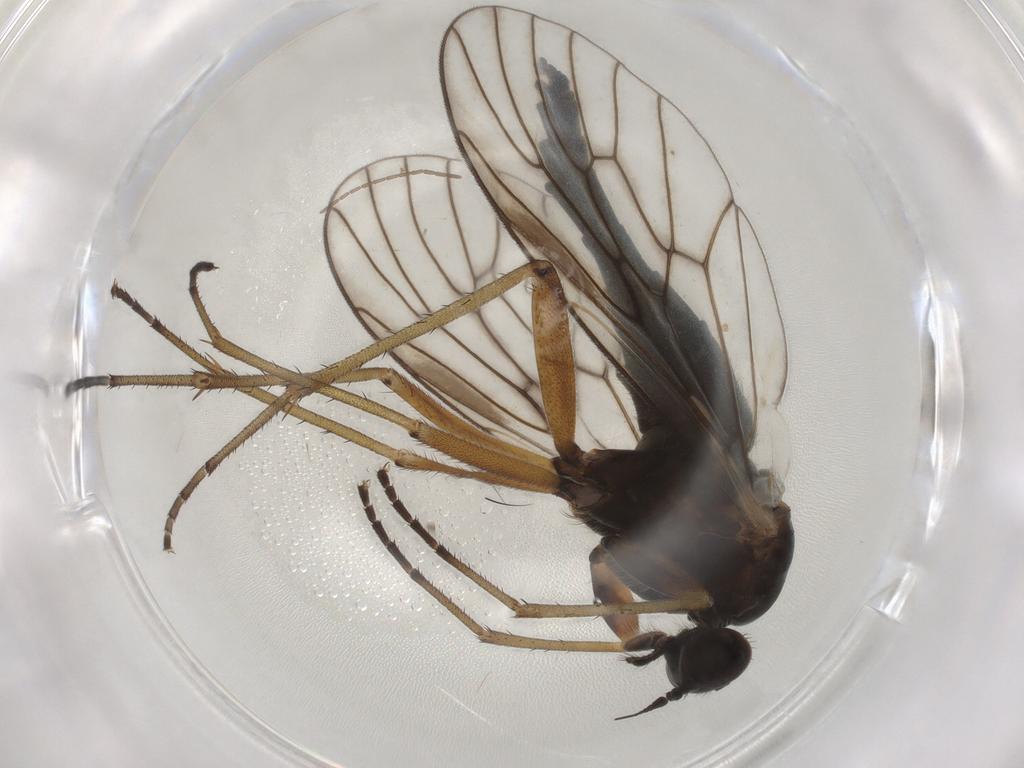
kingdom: Animalia
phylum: Arthropoda
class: Insecta
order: Diptera
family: Rhagionidae
